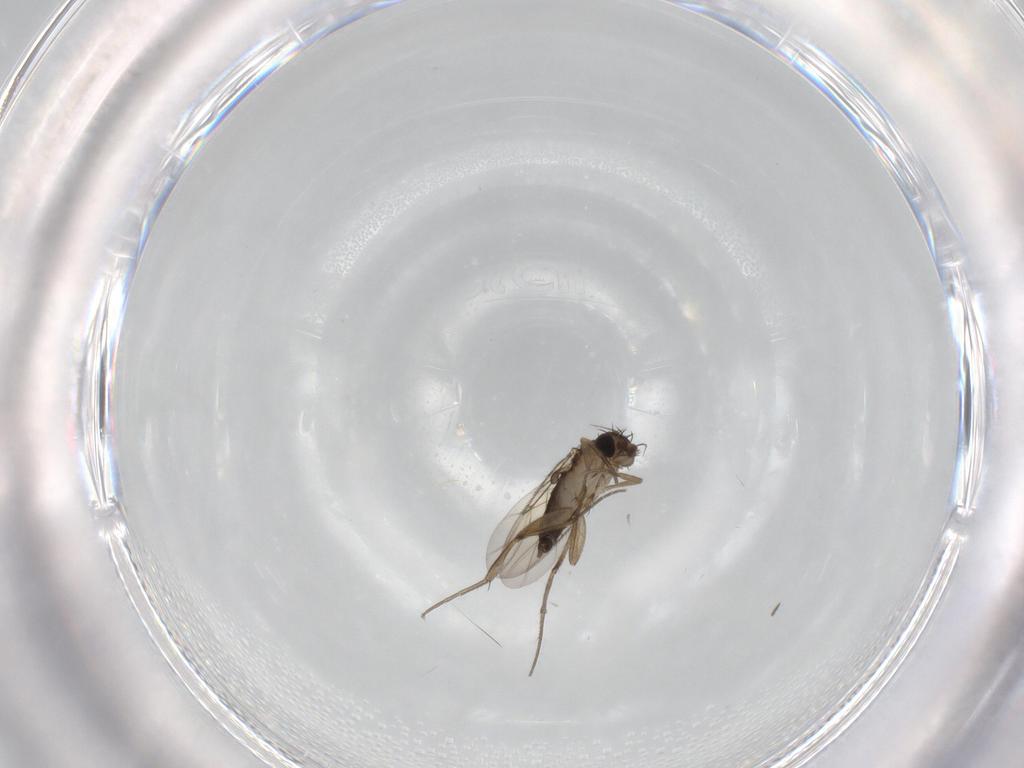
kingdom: Animalia
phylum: Arthropoda
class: Insecta
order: Diptera
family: Phoridae
